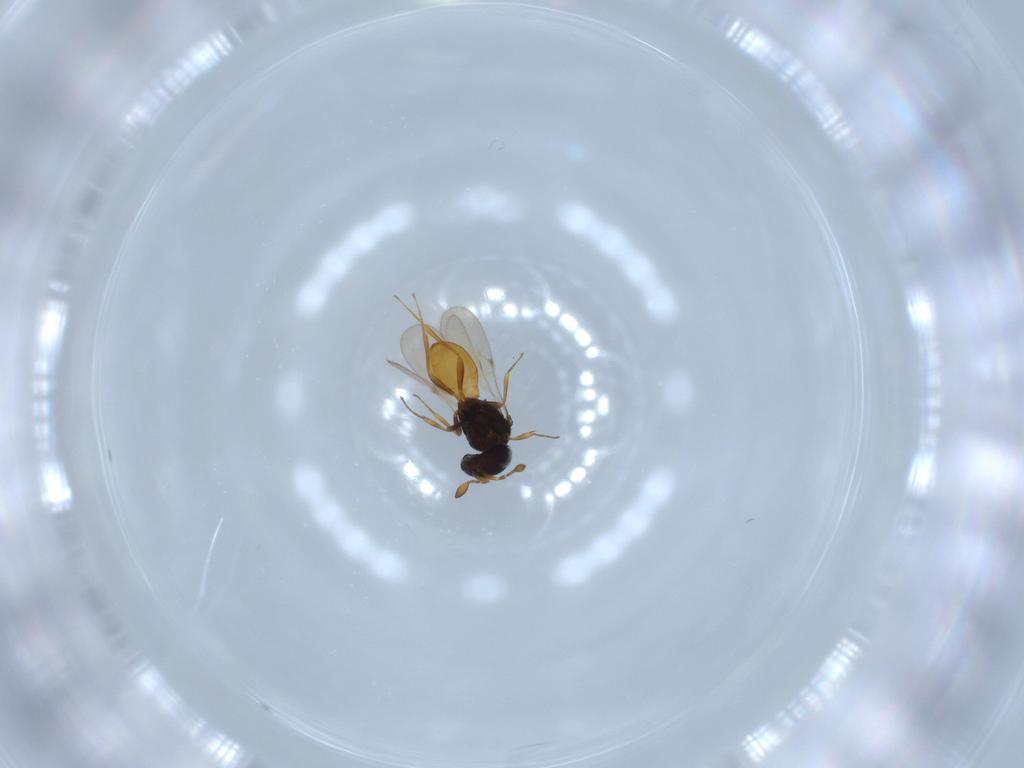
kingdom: Animalia
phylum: Arthropoda
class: Insecta
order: Hymenoptera
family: Scelionidae
